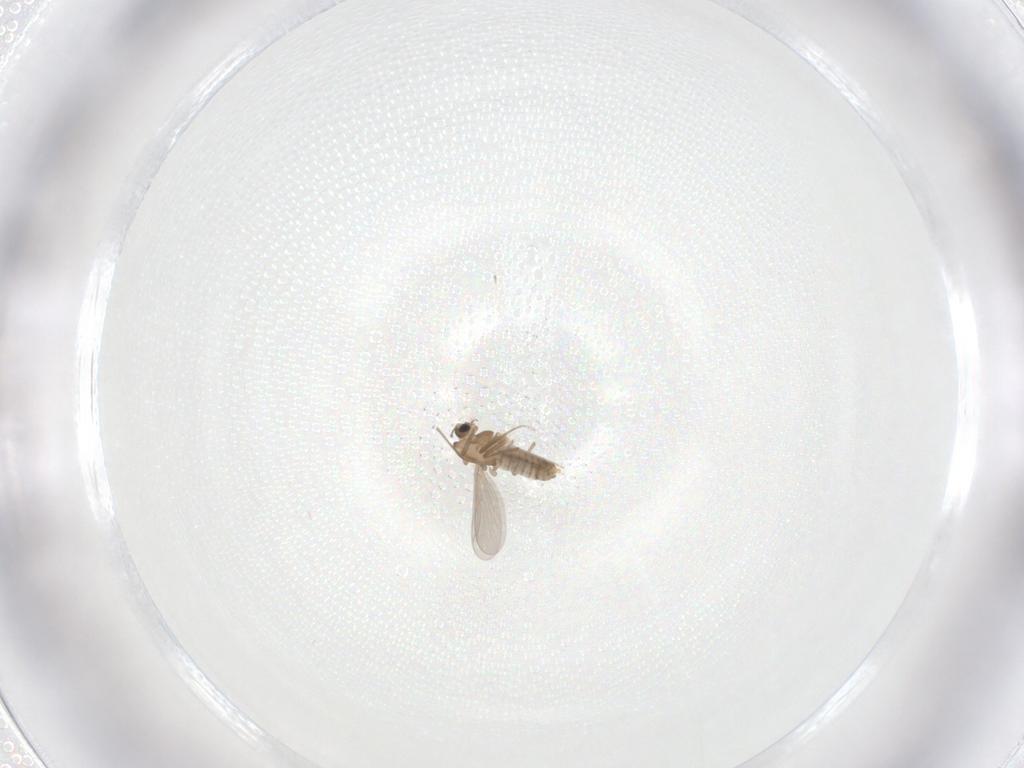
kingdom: Animalia
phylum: Arthropoda
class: Insecta
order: Diptera
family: Chironomidae
